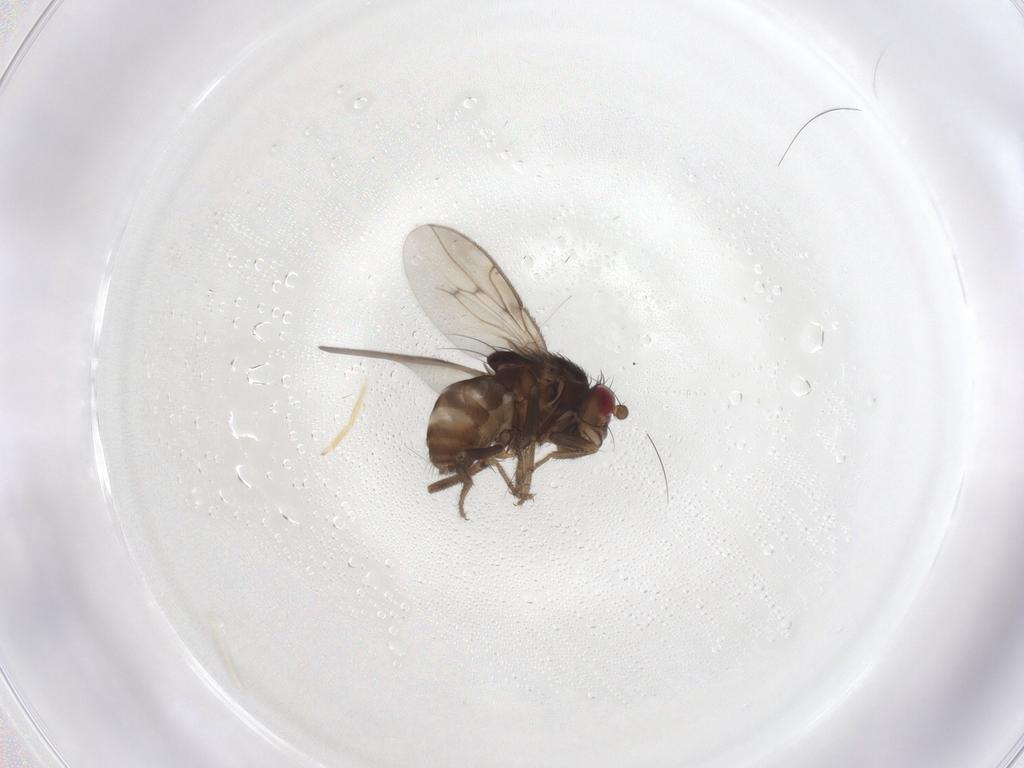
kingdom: Animalia
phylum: Arthropoda
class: Insecta
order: Diptera
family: Sphaeroceridae
